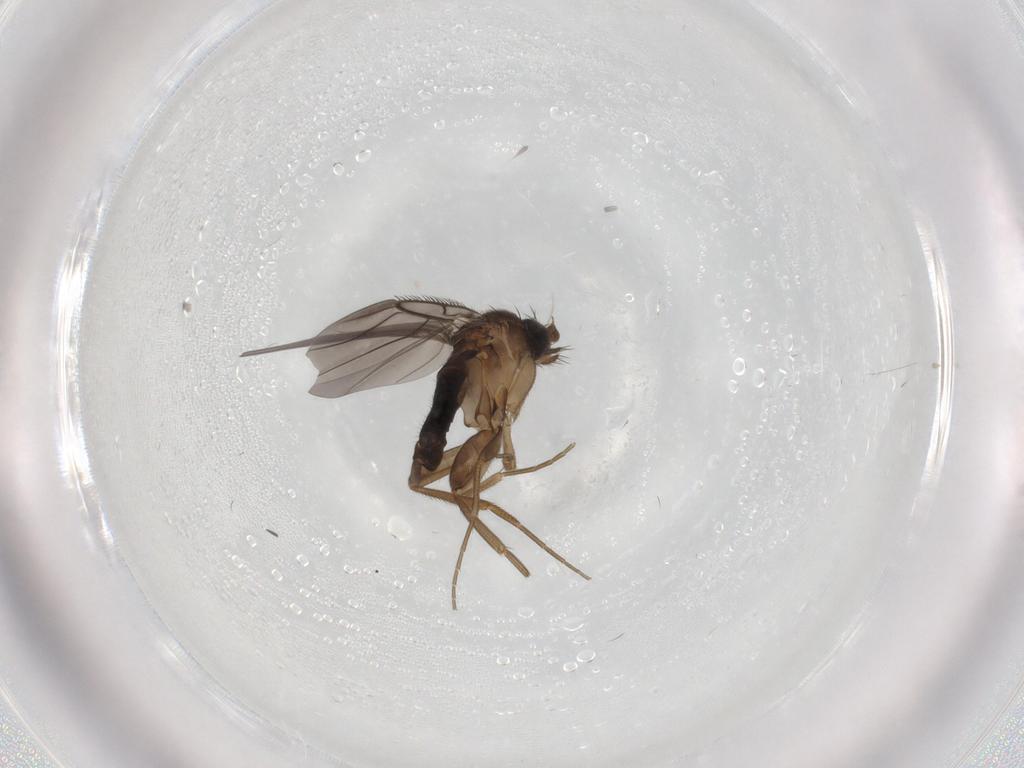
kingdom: Animalia
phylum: Arthropoda
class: Insecta
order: Diptera
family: Phoridae
